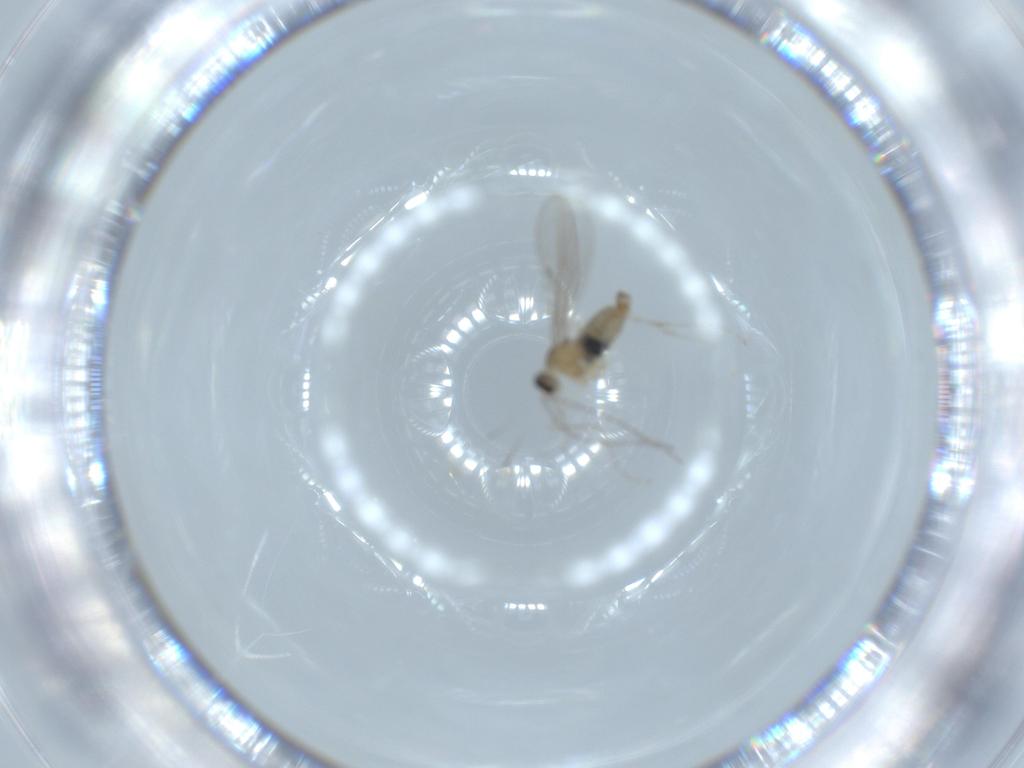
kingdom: Animalia
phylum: Arthropoda
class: Insecta
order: Diptera
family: Cecidomyiidae
